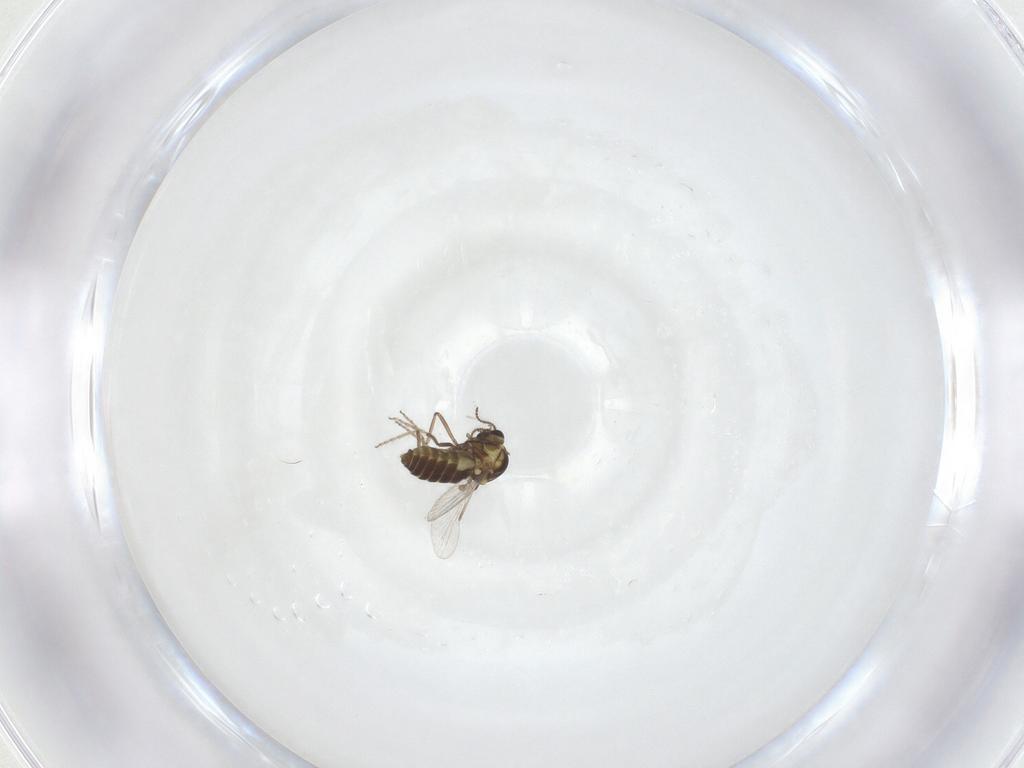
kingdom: Animalia
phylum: Arthropoda
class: Insecta
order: Diptera
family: Ceratopogonidae
